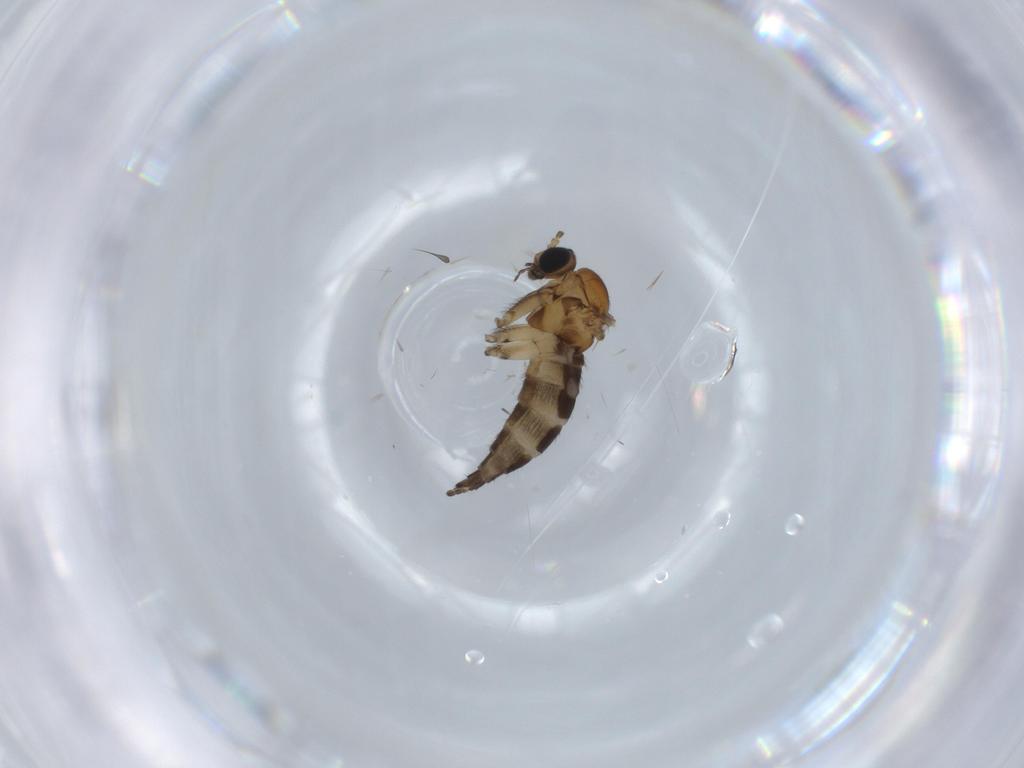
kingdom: Animalia
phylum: Arthropoda
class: Insecta
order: Diptera
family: Sciaridae
